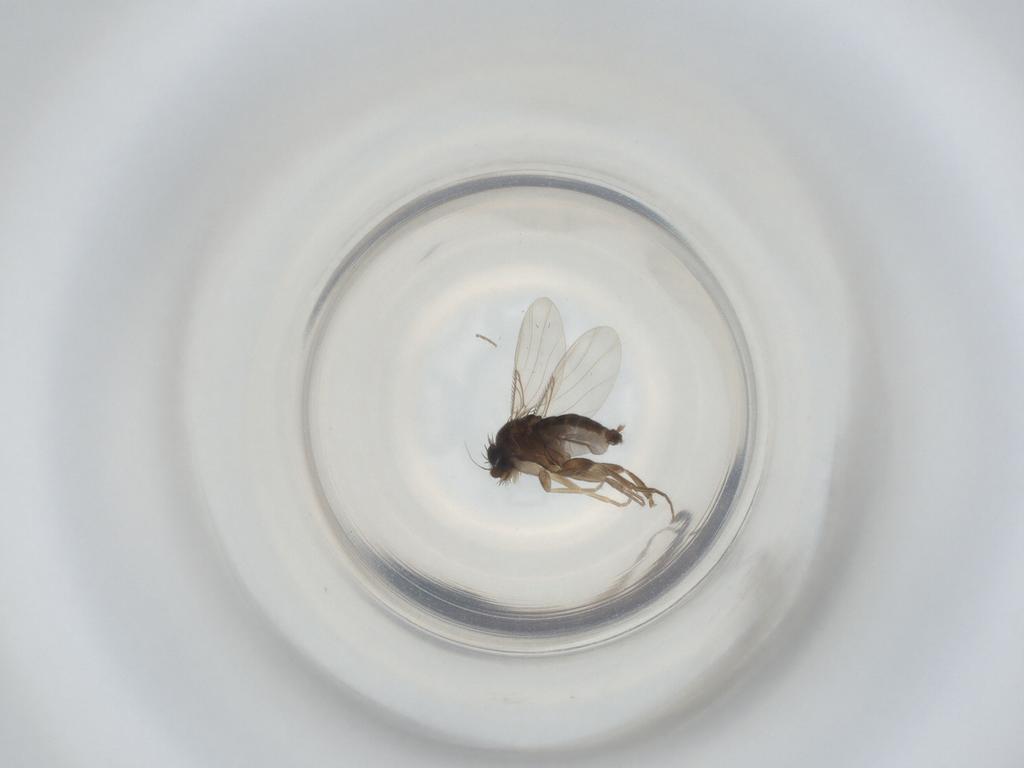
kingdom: Animalia
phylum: Arthropoda
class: Insecta
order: Diptera
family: Phoridae
